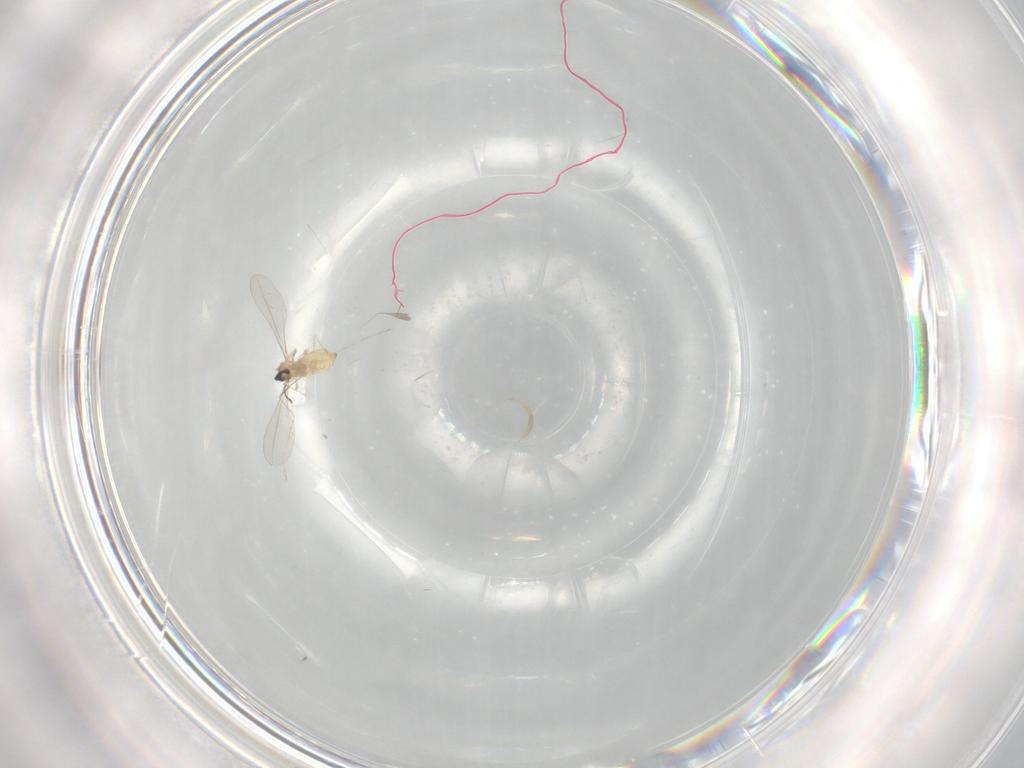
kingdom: Animalia
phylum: Arthropoda
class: Insecta
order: Diptera
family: Cecidomyiidae
